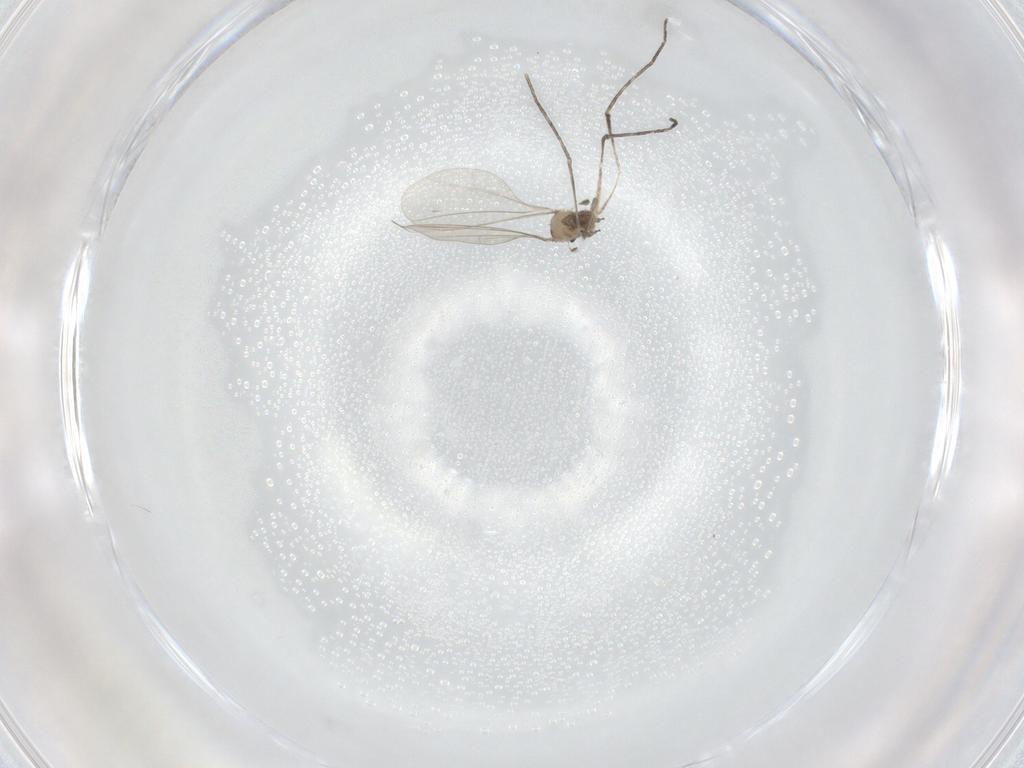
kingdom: Animalia
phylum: Arthropoda
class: Insecta
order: Diptera
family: Cecidomyiidae
